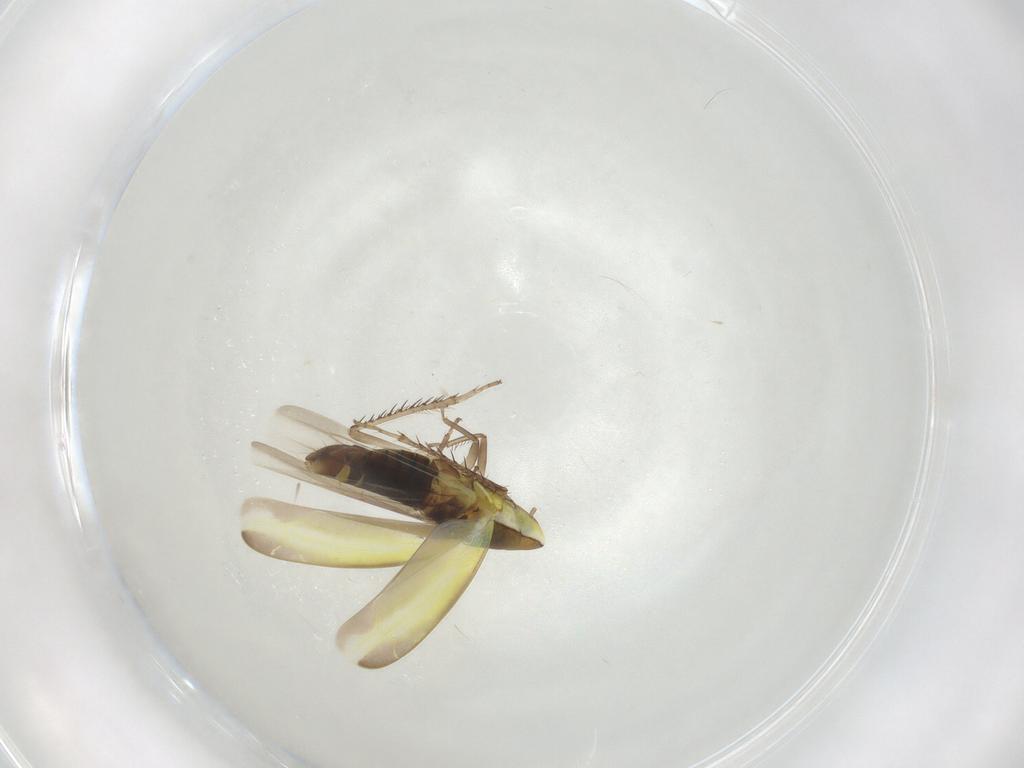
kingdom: Animalia
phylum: Arthropoda
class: Insecta
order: Hemiptera
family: Cicadellidae
